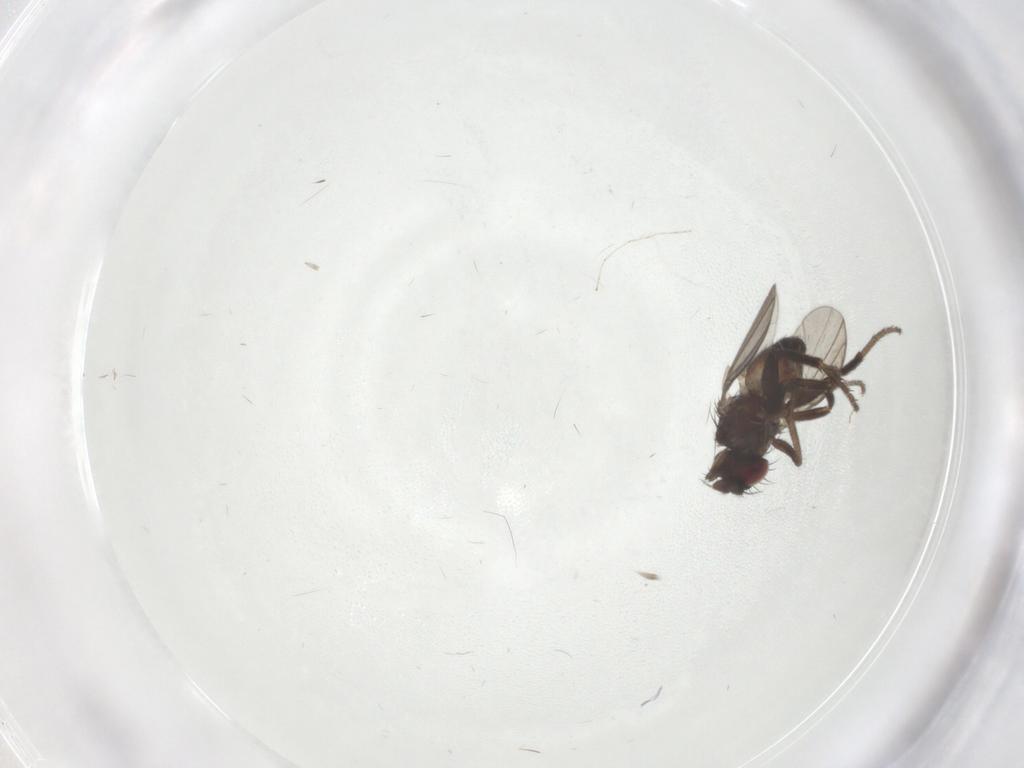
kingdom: Animalia
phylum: Arthropoda
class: Insecta
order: Diptera
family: Milichiidae
